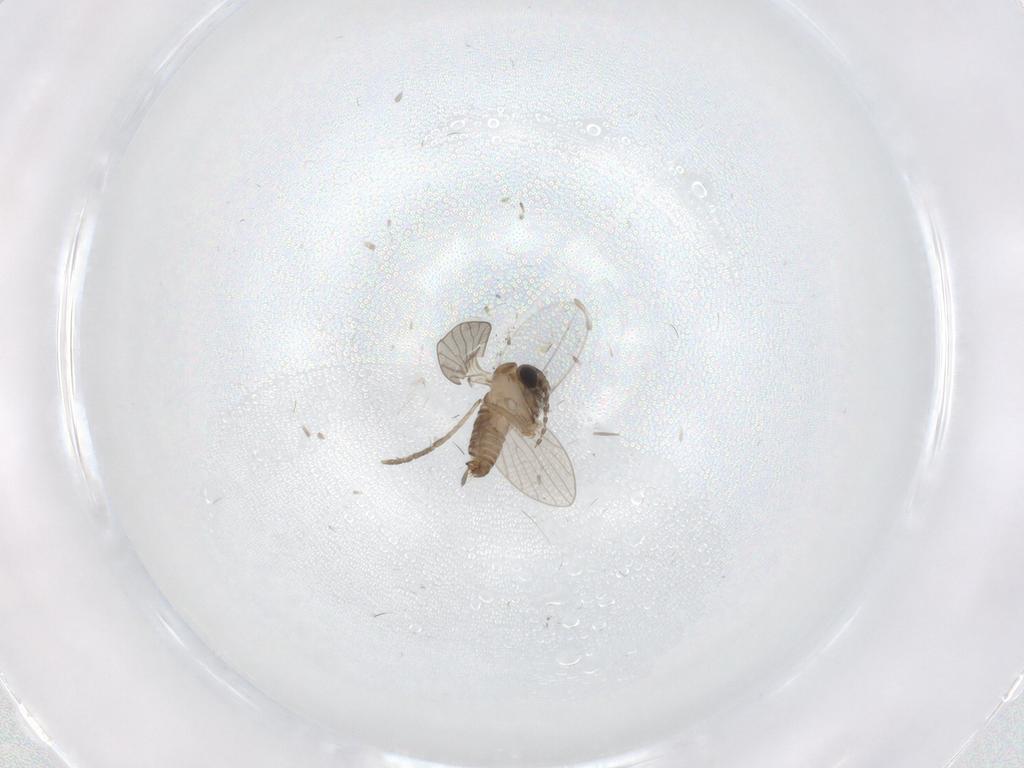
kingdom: Animalia
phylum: Arthropoda
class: Insecta
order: Diptera
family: Psychodidae
